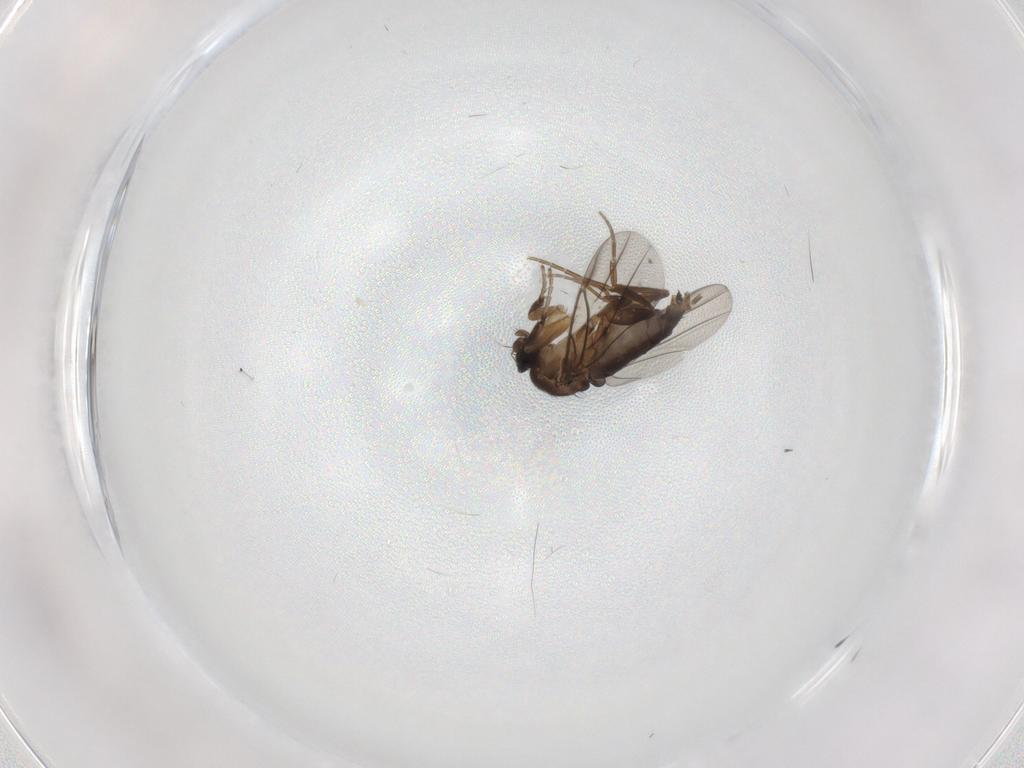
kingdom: Animalia
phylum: Arthropoda
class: Insecta
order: Diptera
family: Phoridae
